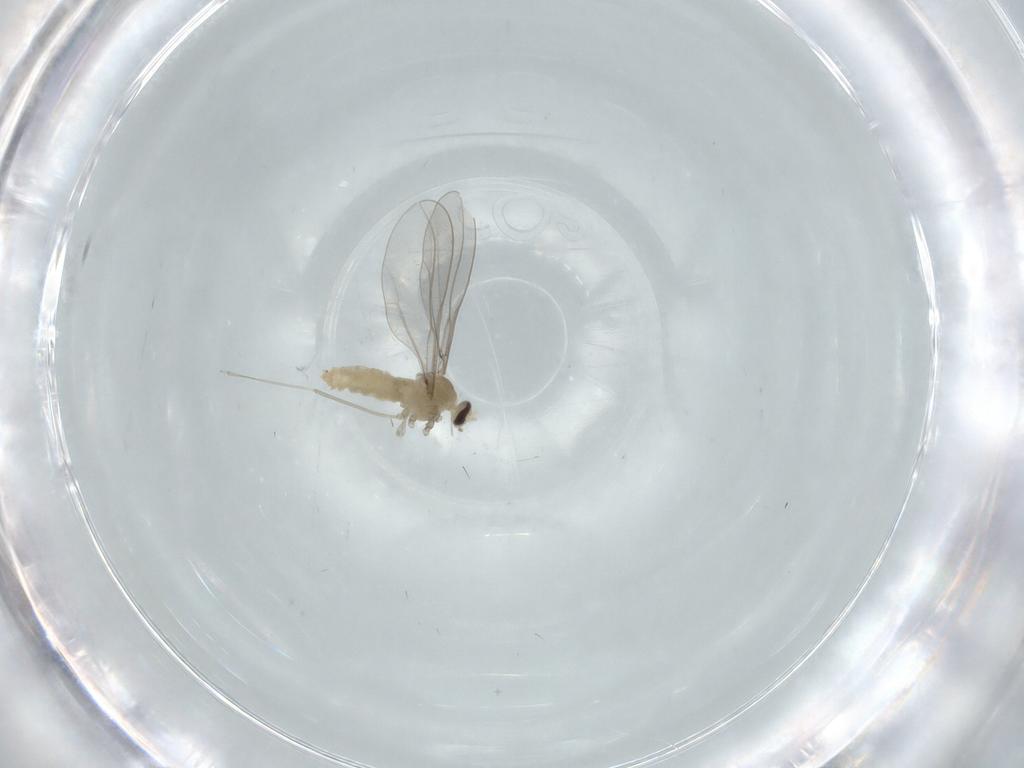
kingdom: Animalia
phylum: Arthropoda
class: Insecta
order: Diptera
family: Cecidomyiidae
